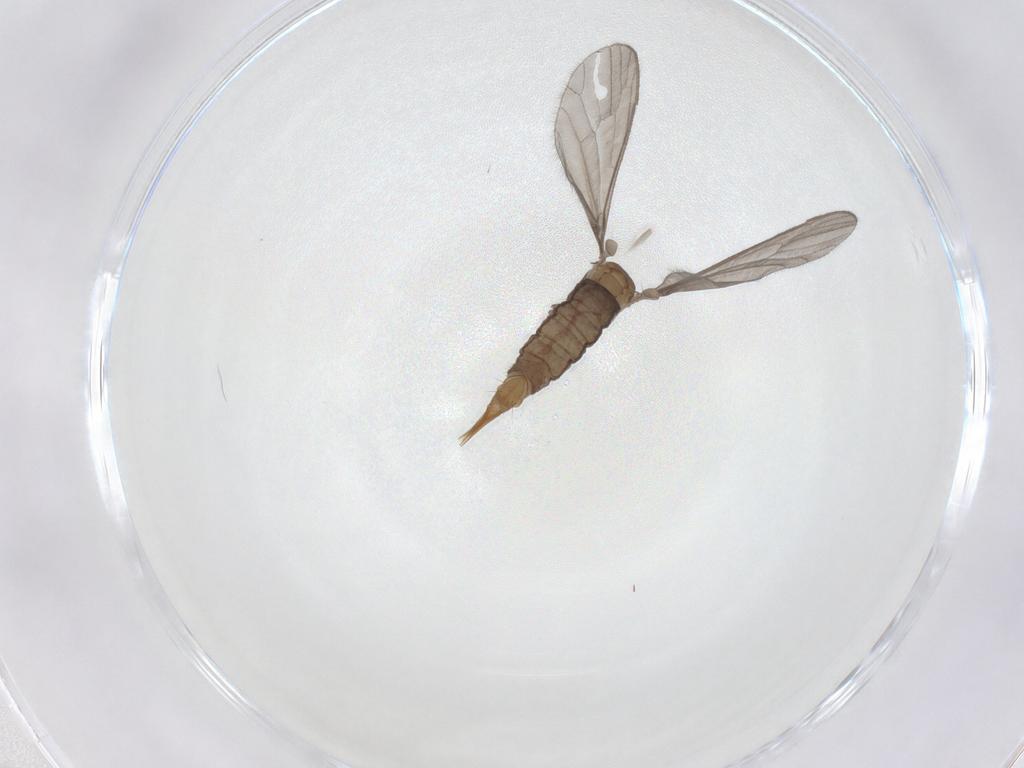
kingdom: Animalia
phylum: Arthropoda
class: Insecta
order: Diptera
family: Limoniidae
